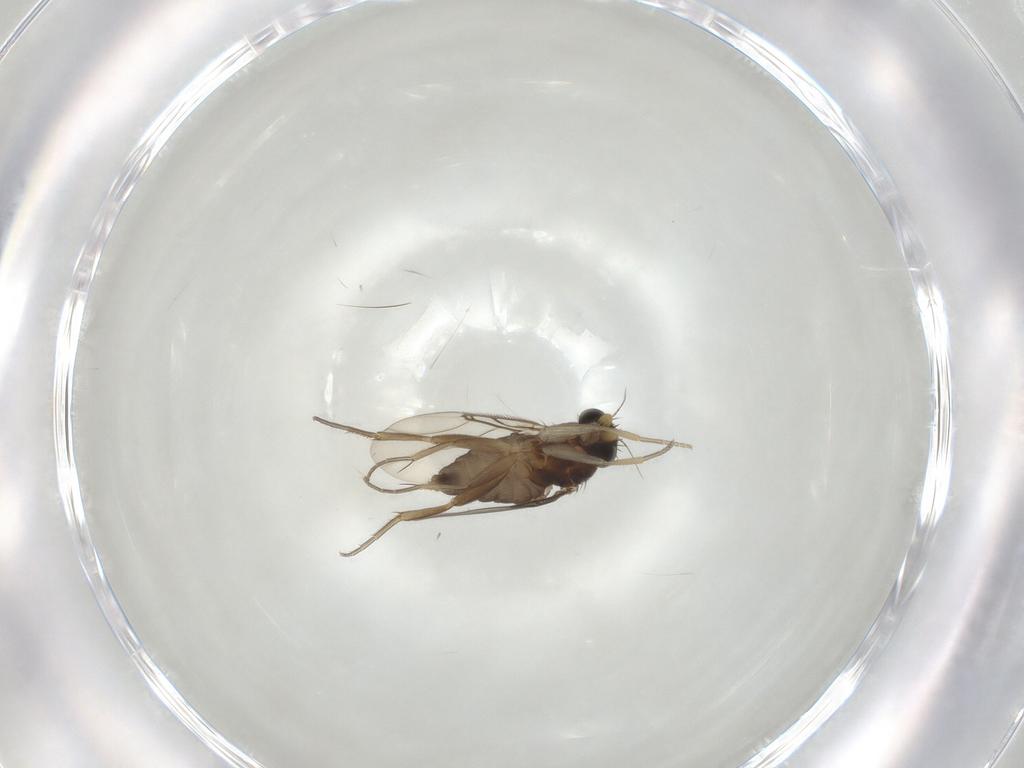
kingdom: Animalia
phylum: Arthropoda
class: Insecta
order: Diptera
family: Phoridae
